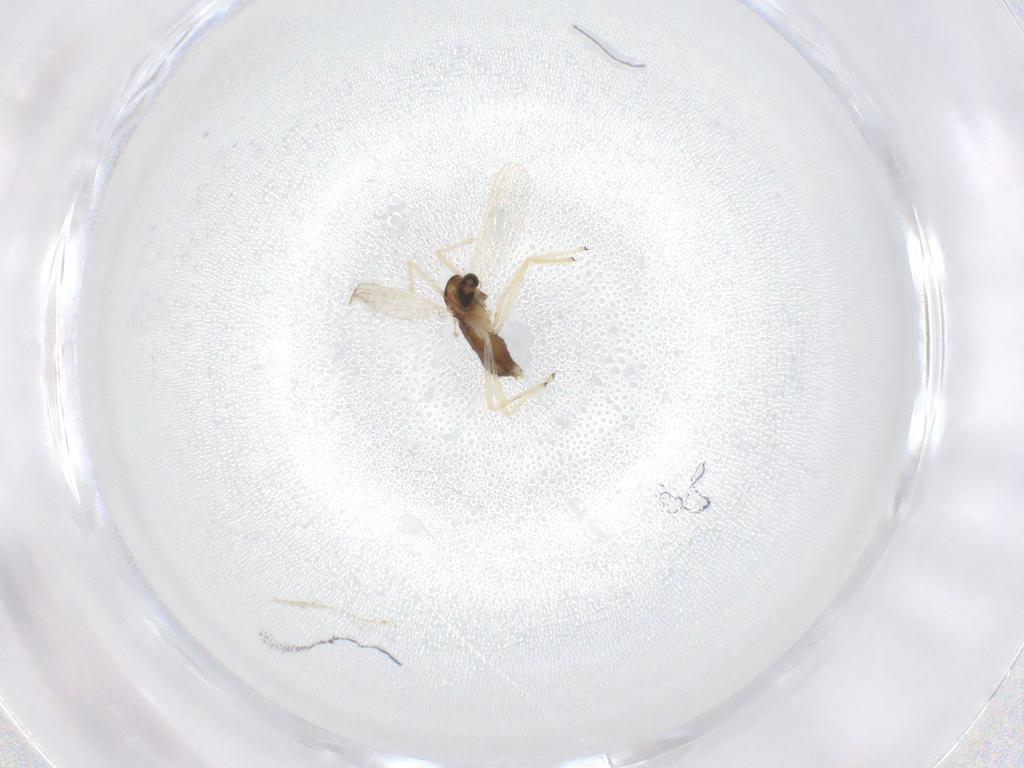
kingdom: Animalia
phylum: Arthropoda
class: Insecta
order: Diptera
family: Chironomidae
